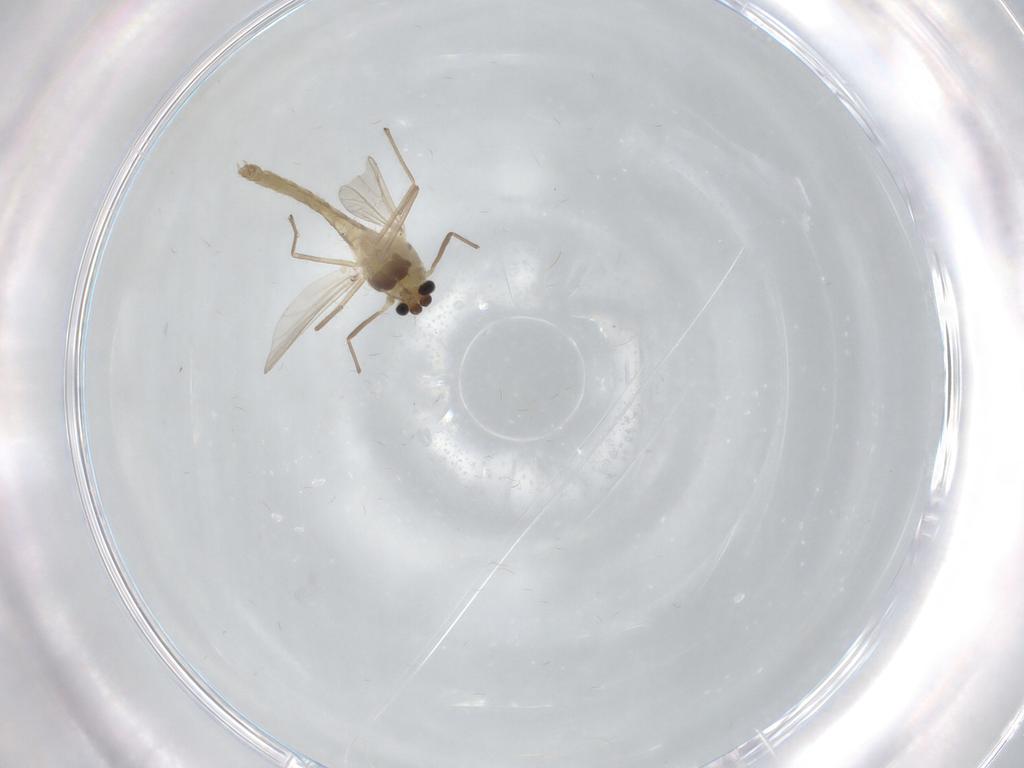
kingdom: Animalia
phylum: Arthropoda
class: Insecta
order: Diptera
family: Chironomidae
